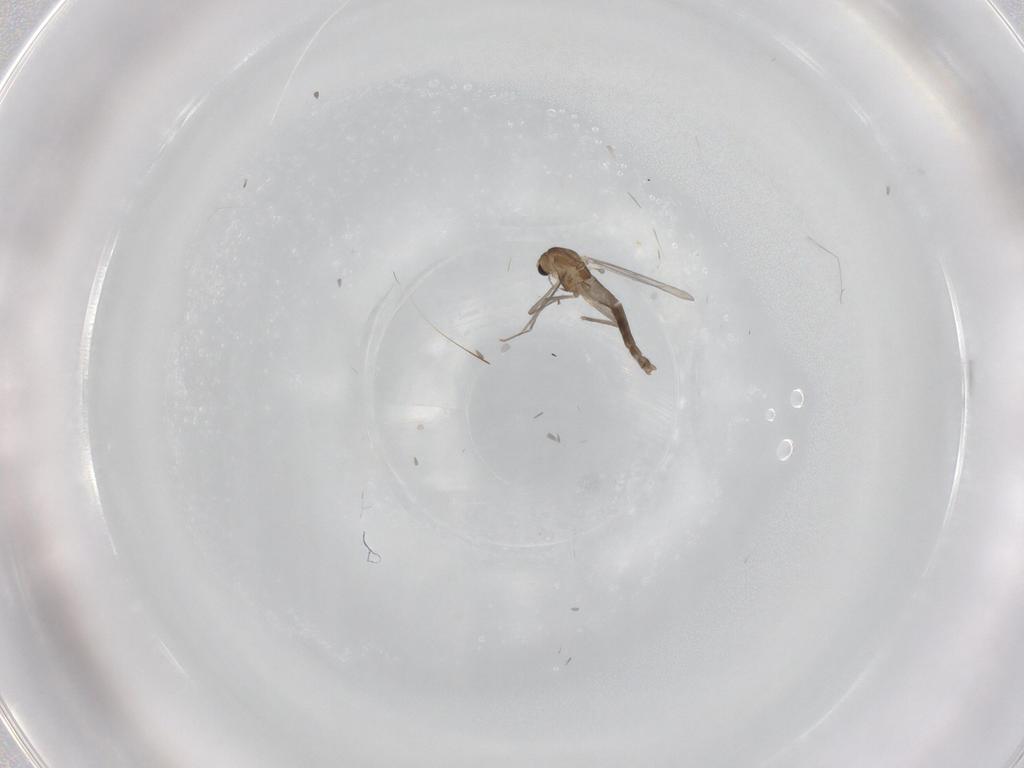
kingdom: Animalia
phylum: Arthropoda
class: Insecta
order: Diptera
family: Chironomidae
